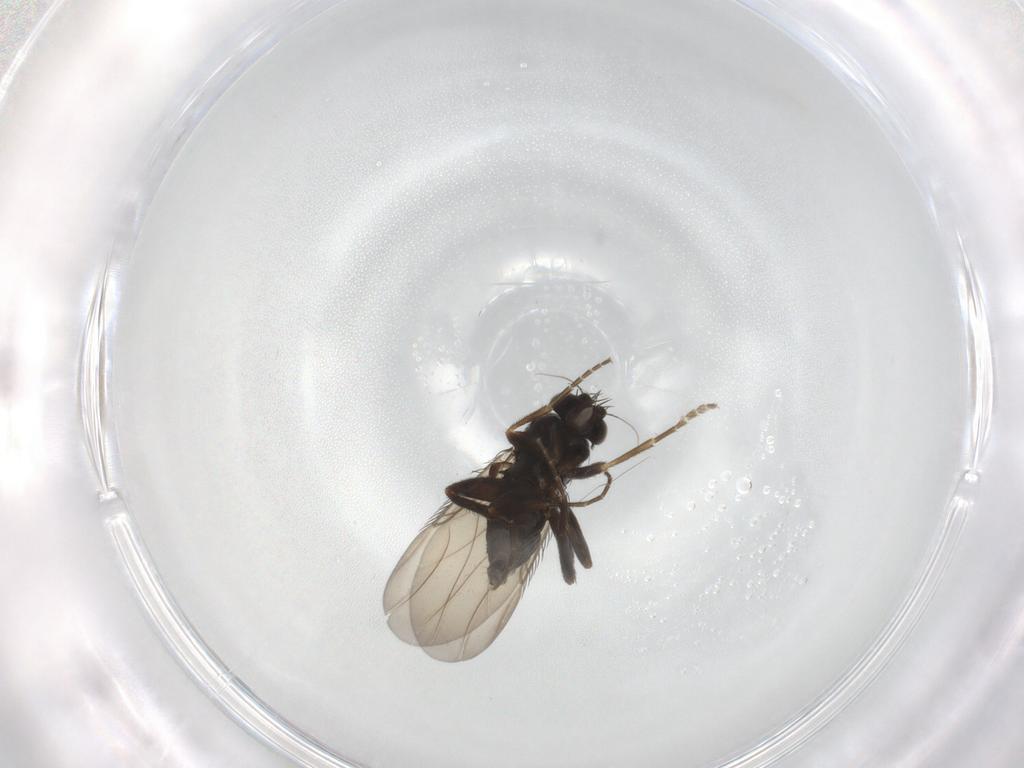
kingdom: Animalia
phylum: Arthropoda
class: Insecta
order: Diptera
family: Phoridae
